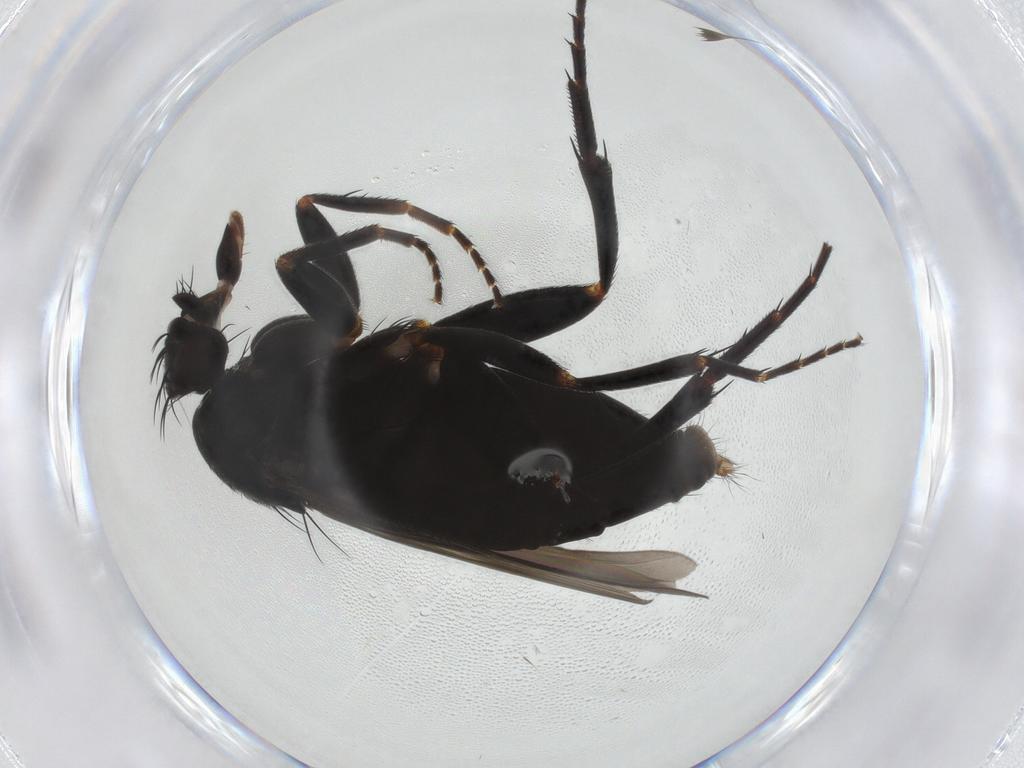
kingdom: Animalia
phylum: Arthropoda
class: Insecta
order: Diptera
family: Phoridae
